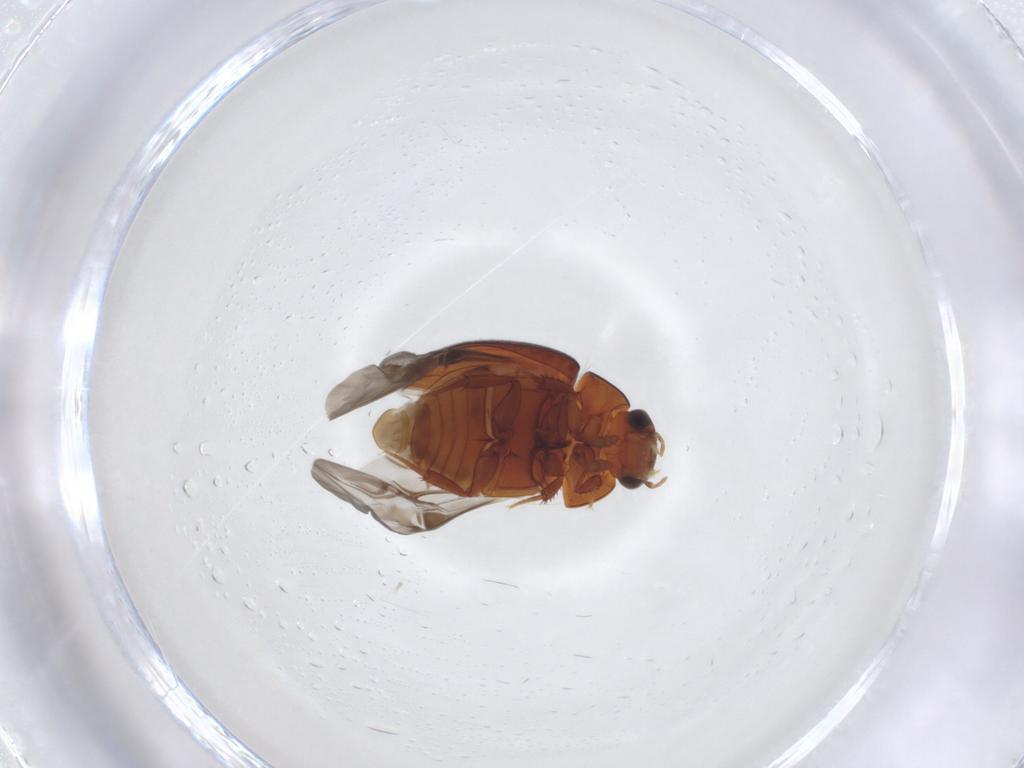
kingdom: Animalia
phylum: Arthropoda
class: Insecta
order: Coleoptera
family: Hydrophilidae
